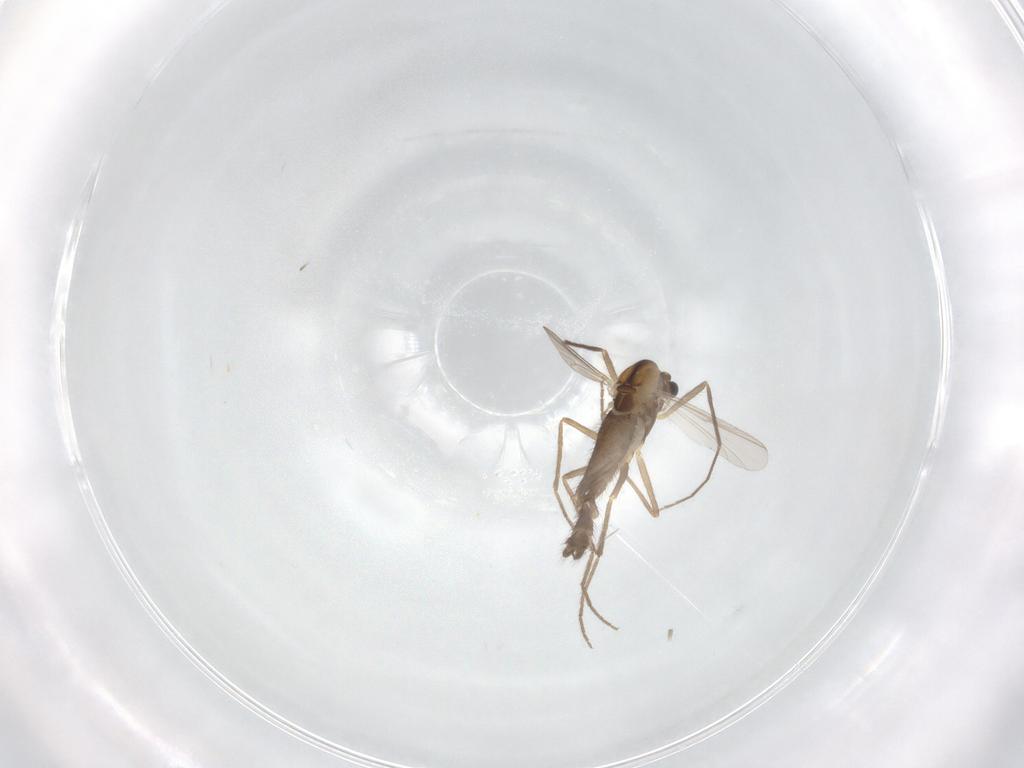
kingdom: Animalia
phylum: Arthropoda
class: Insecta
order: Diptera
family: Chironomidae
